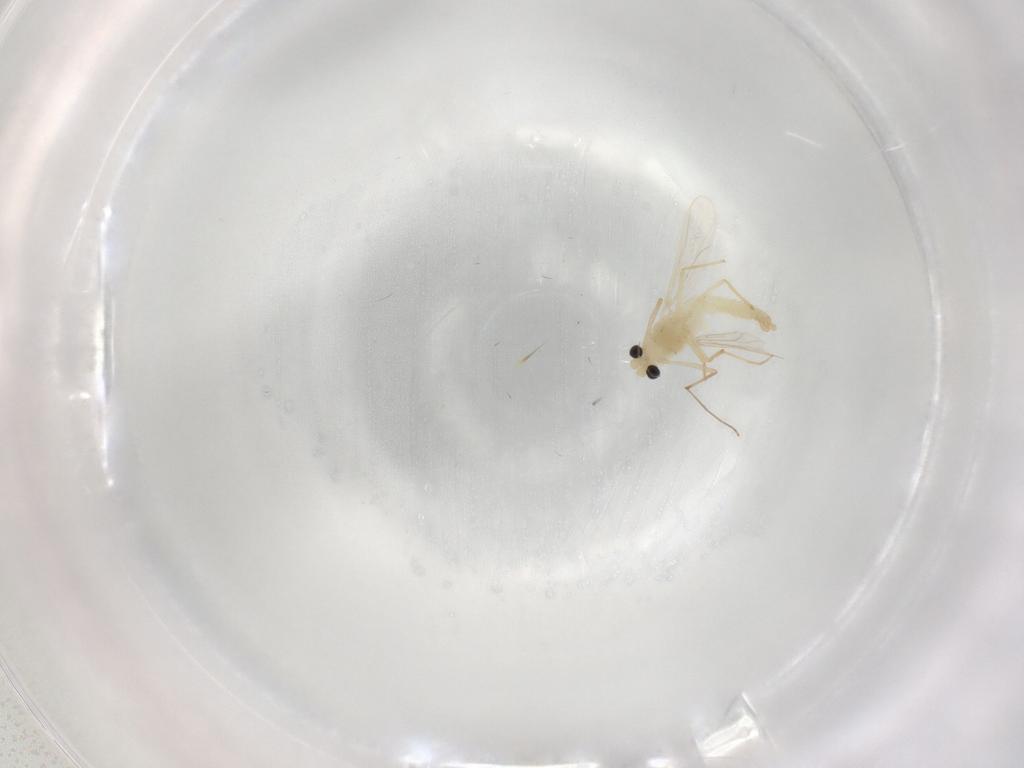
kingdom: Animalia
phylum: Arthropoda
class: Insecta
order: Diptera
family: Chironomidae
